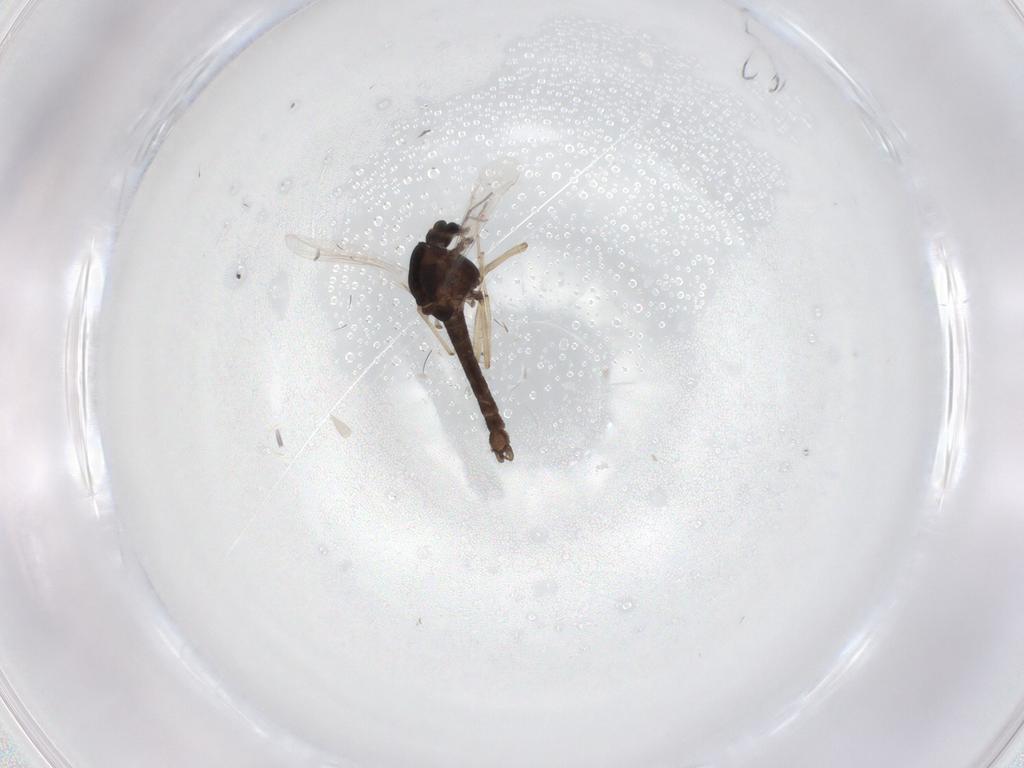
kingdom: Animalia
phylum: Arthropoda
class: Insecta
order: Diptera
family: Chironomidae
